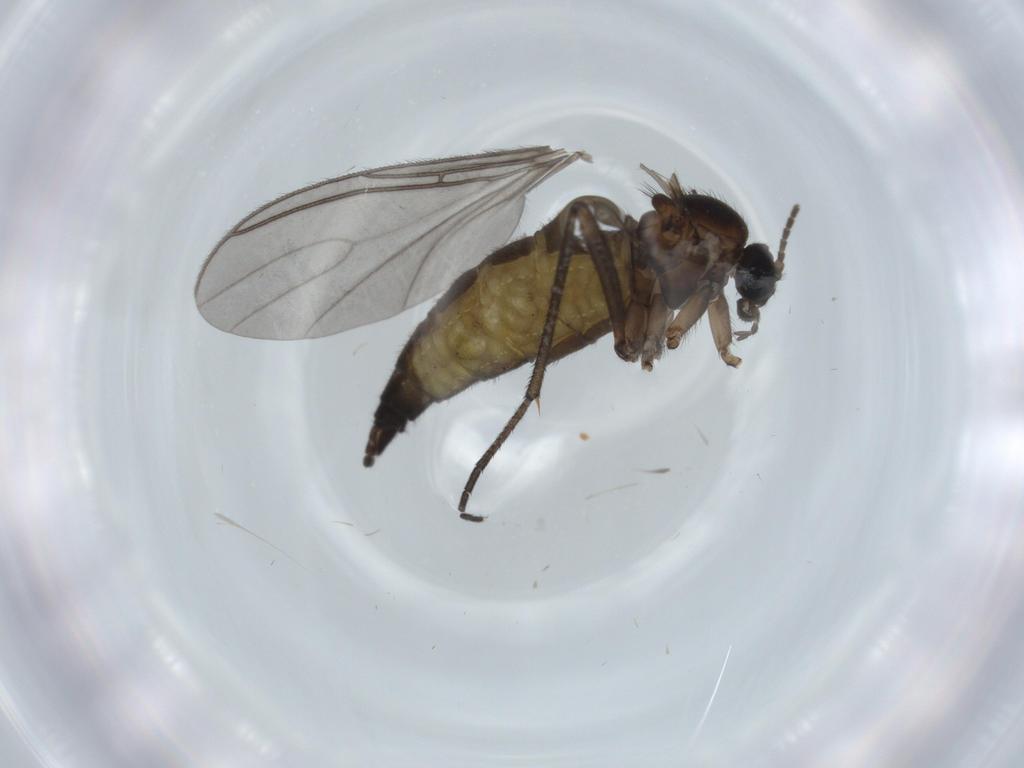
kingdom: Animalia
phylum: Arthropoda
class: Insecta
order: Diptera
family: Sciaridae
